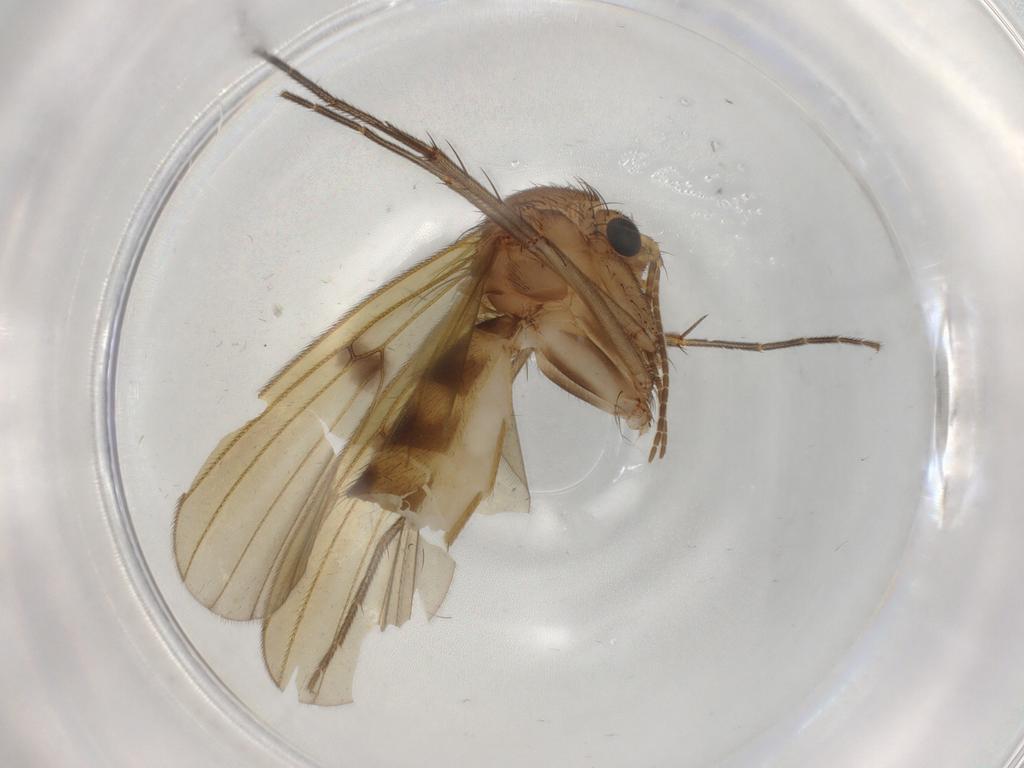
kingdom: Animalia
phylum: Arthropoda
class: Insecta
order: Diptera
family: Mycetophilidae
